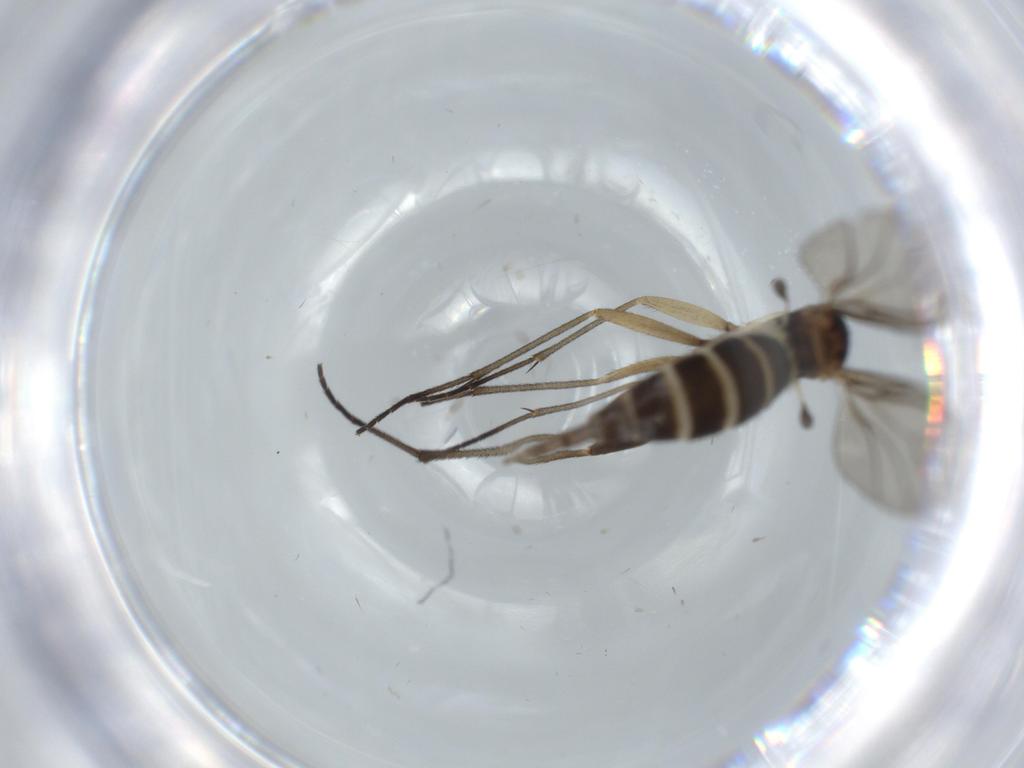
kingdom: Animalia
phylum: Arthropoda
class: Insecta
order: Diptera
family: Sciaridae
